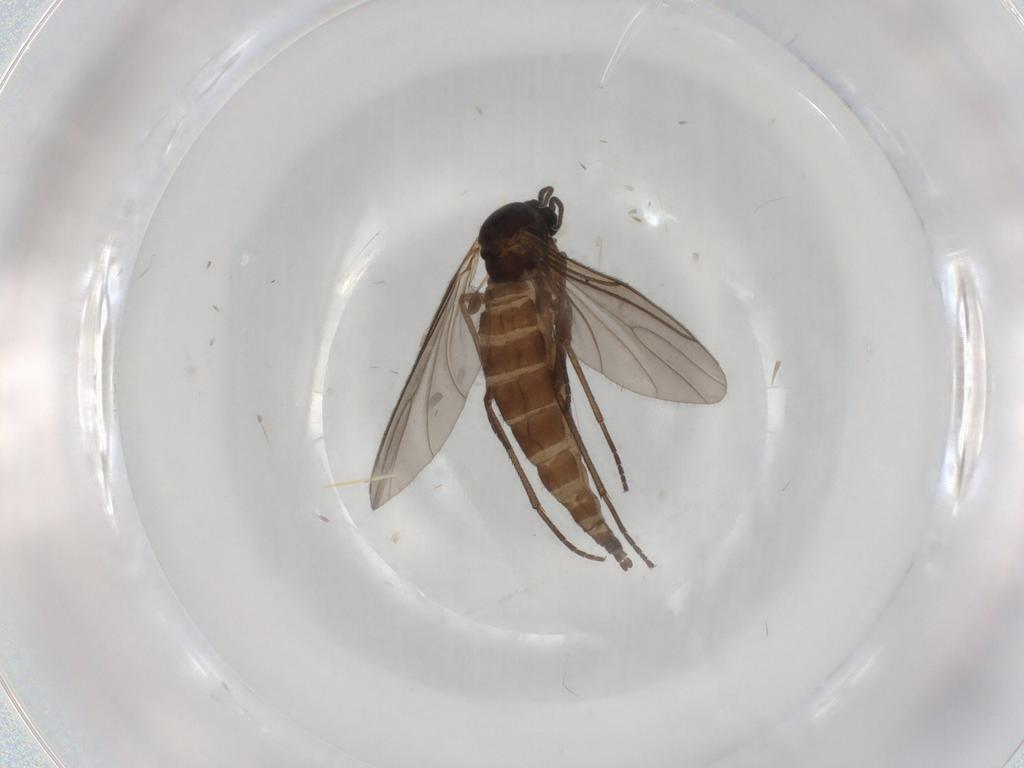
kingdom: Animalia
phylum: Arthropoda
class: Insecta
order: Diptera
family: Sciaridae
